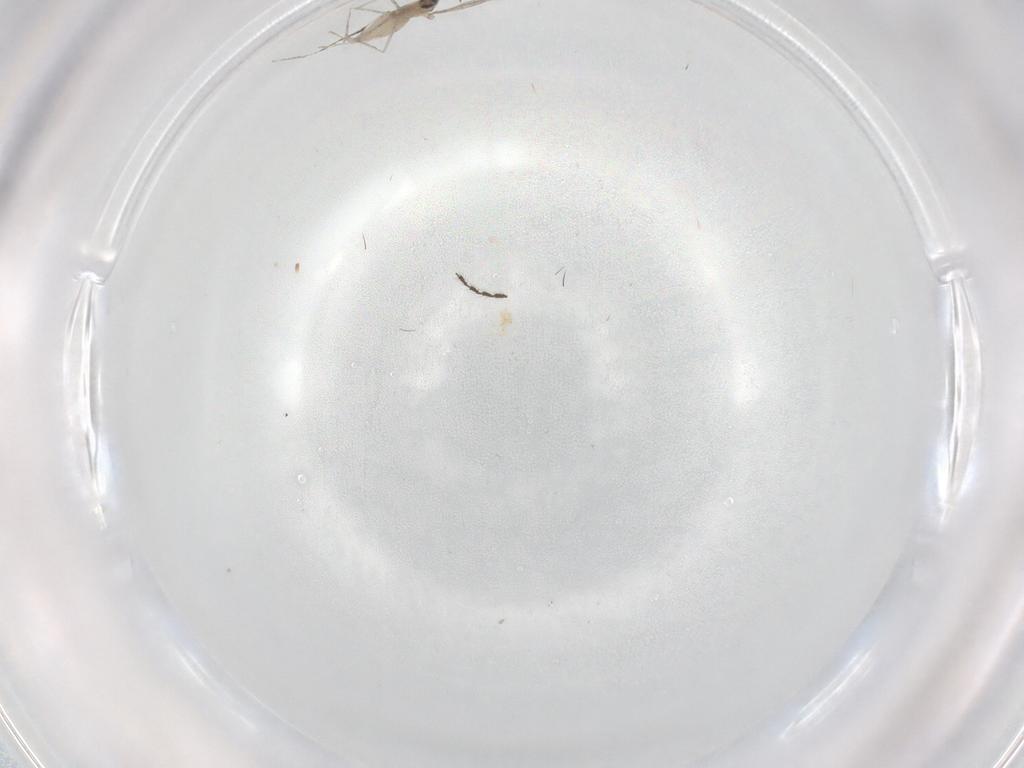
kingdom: Animalia
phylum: Arthropoda
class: Insecta
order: Diptera
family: Cecidomyiidae
